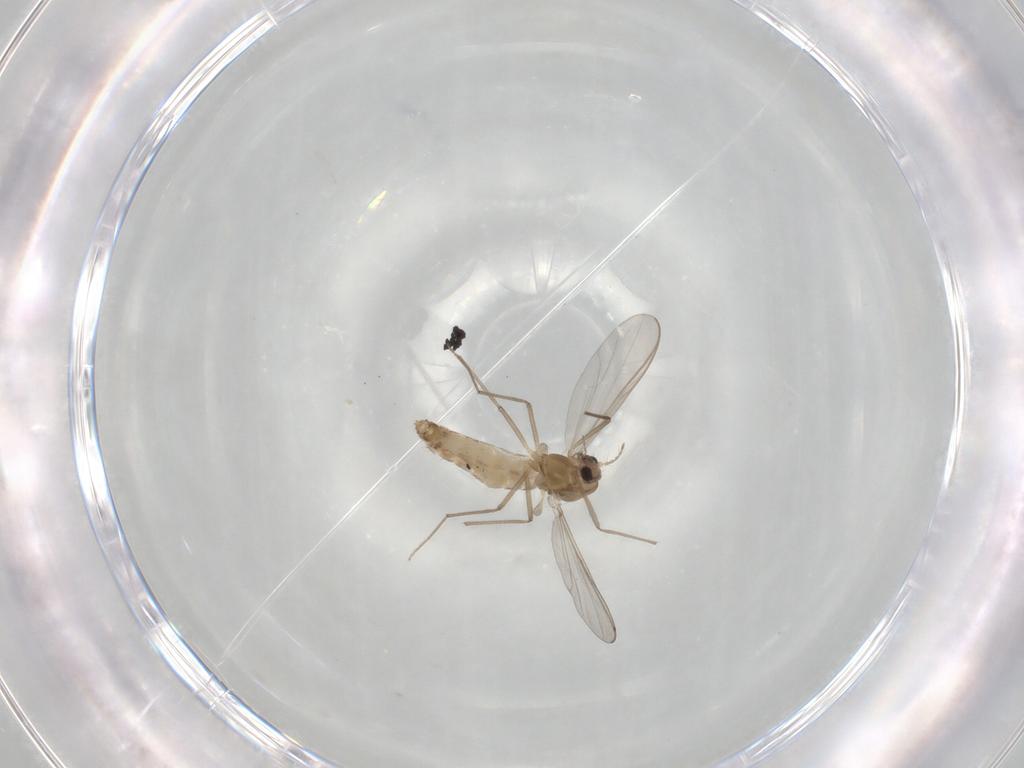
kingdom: Animalia
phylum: Arthropoda
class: Insecta
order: Diptera
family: Chironomidae
